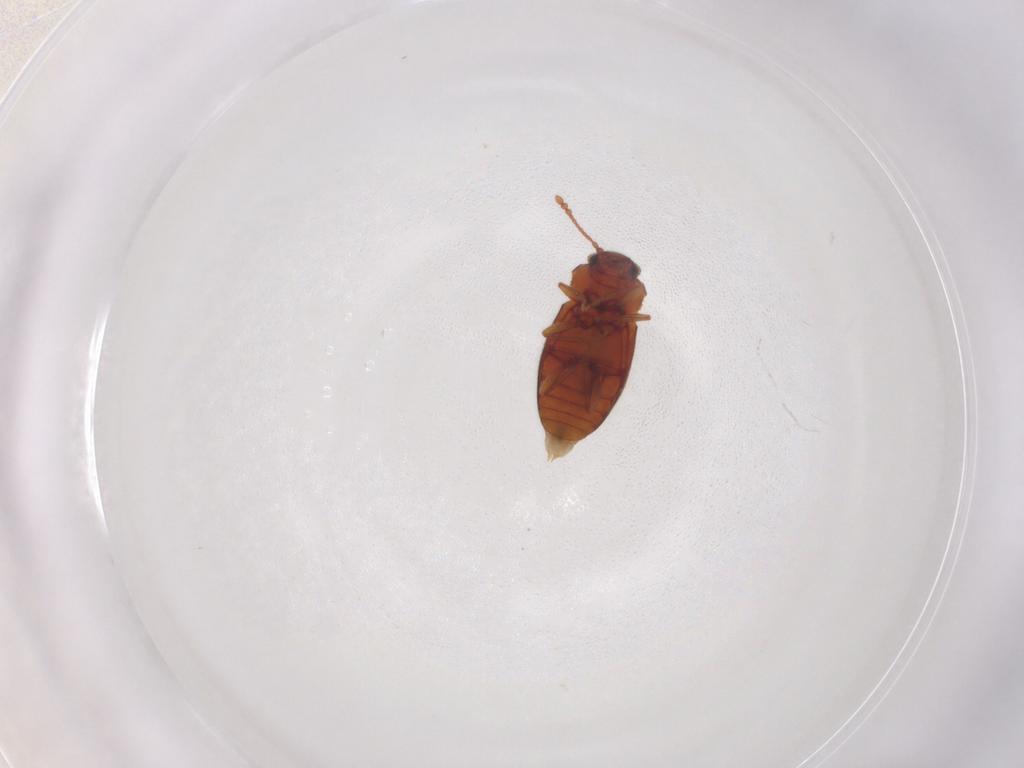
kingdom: Animalia
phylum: Arthropoda
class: Insecta
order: Coleoptera
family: Cryptophagidae
